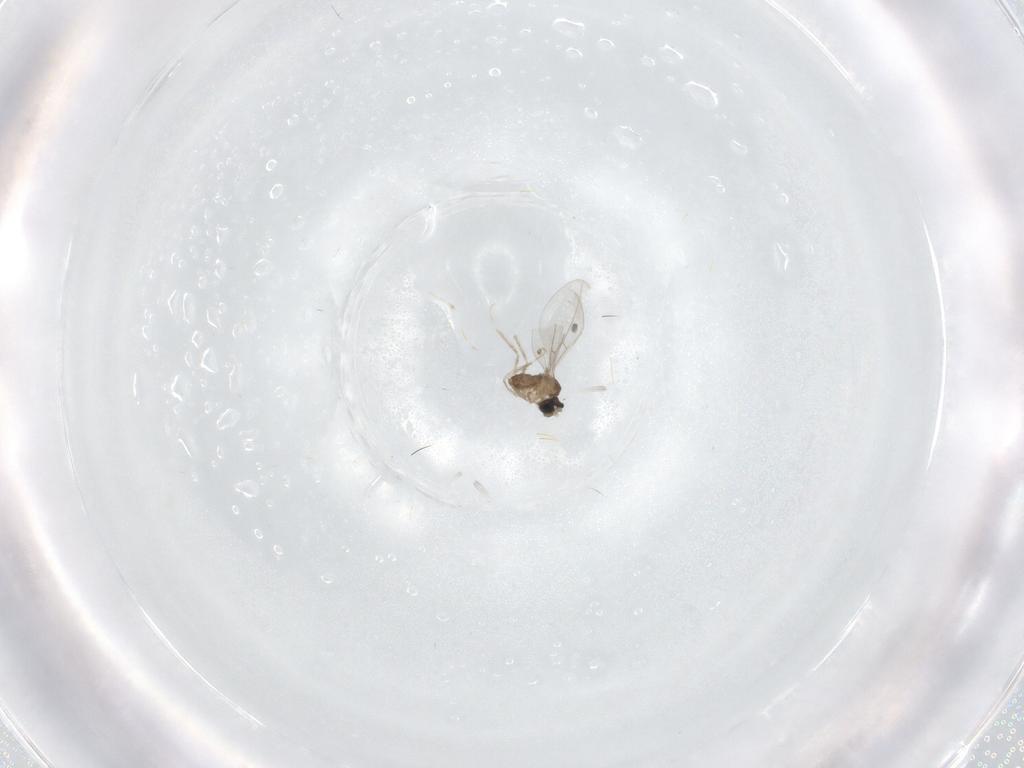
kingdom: Animalia
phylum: Arthropoda
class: Insecta
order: Diptera
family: Cecidomyiidae
